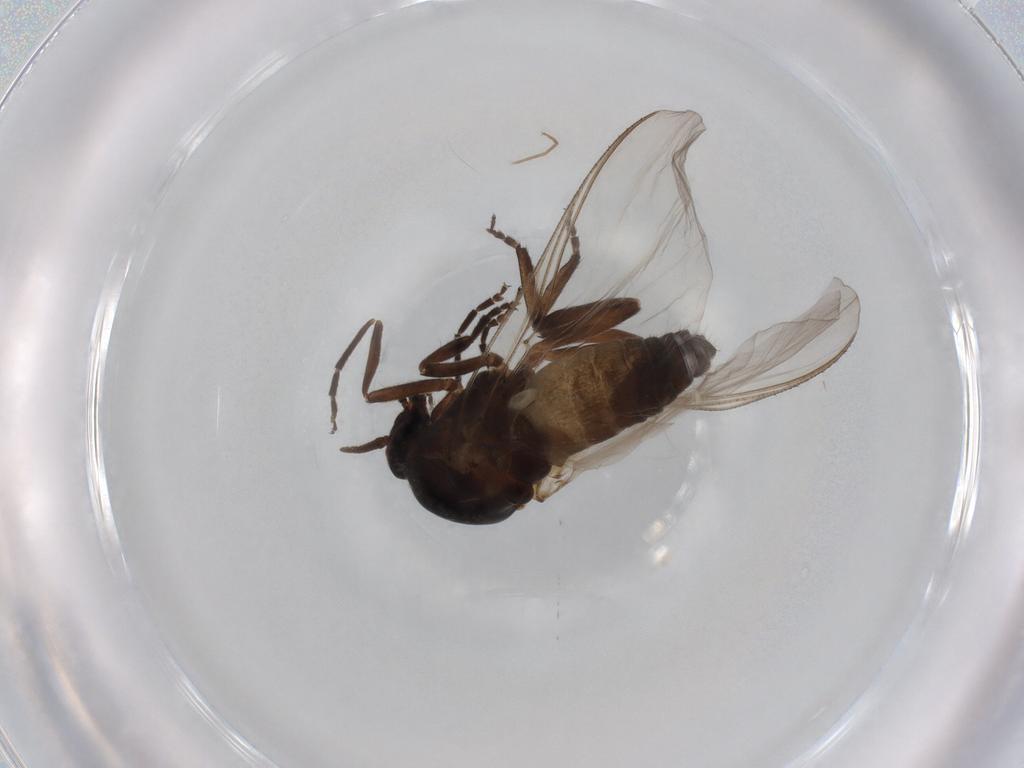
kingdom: Animalia
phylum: Arthropoda
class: Insecta
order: Diptera
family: Simuliidae
